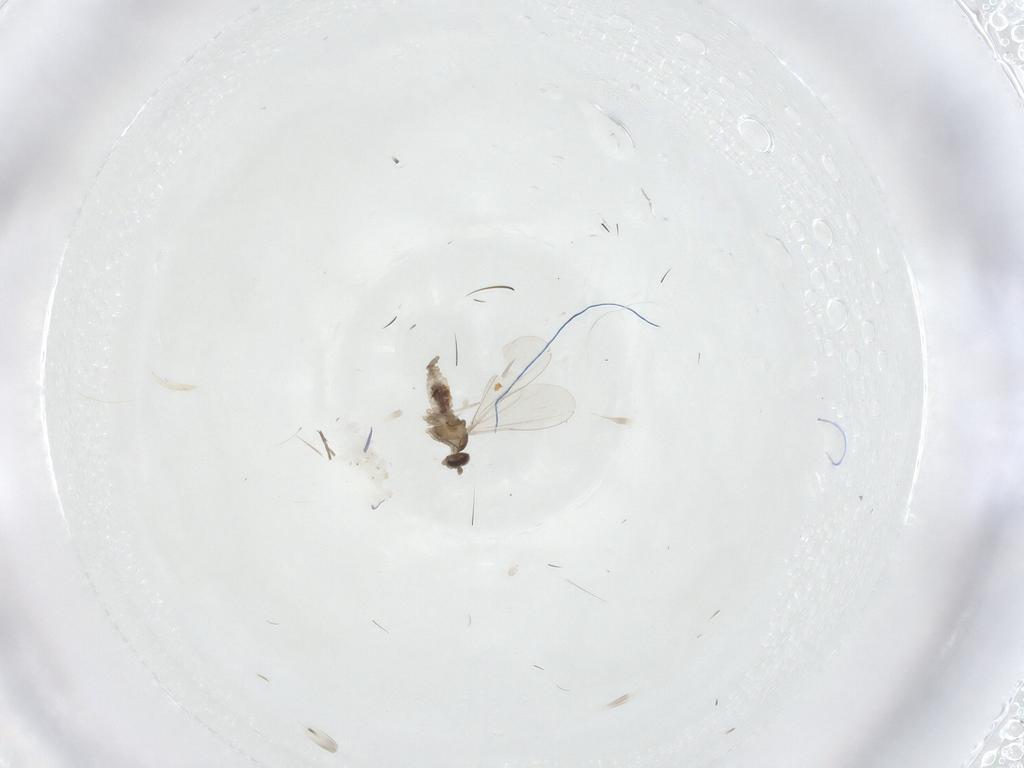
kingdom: Animalia
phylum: Arthropoda
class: Insecta
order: Diptera
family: Cecidomyiidae
